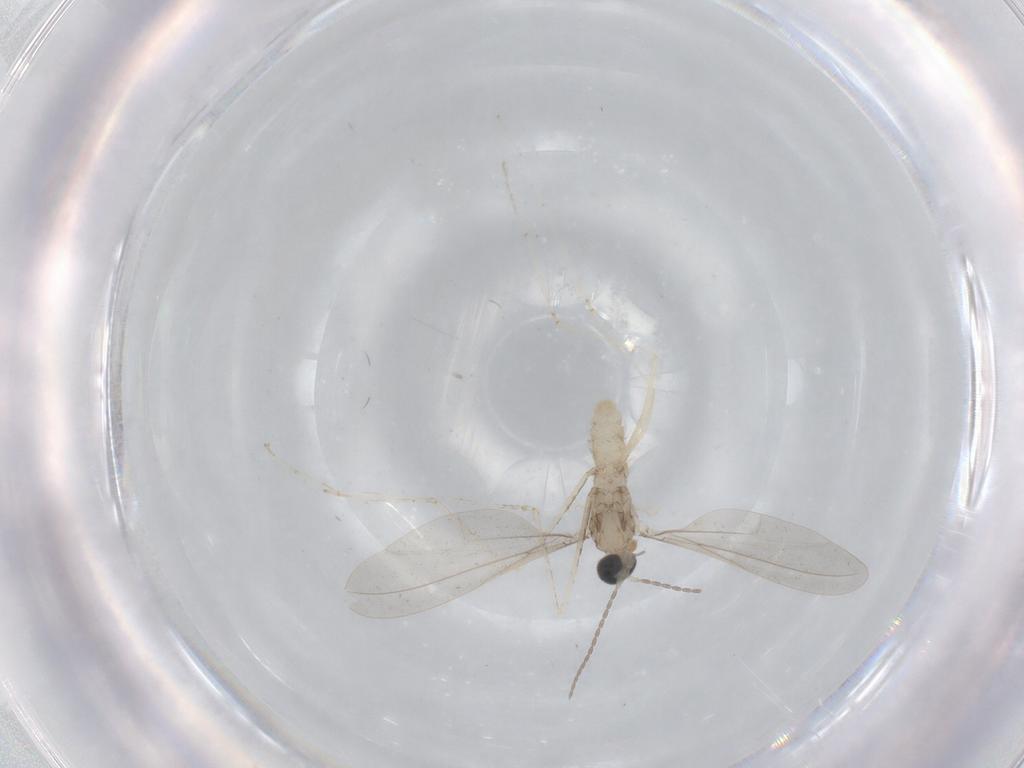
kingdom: Animalia
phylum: Arthropoda
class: Insecta
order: Diptera
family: Cecidomyiidae
